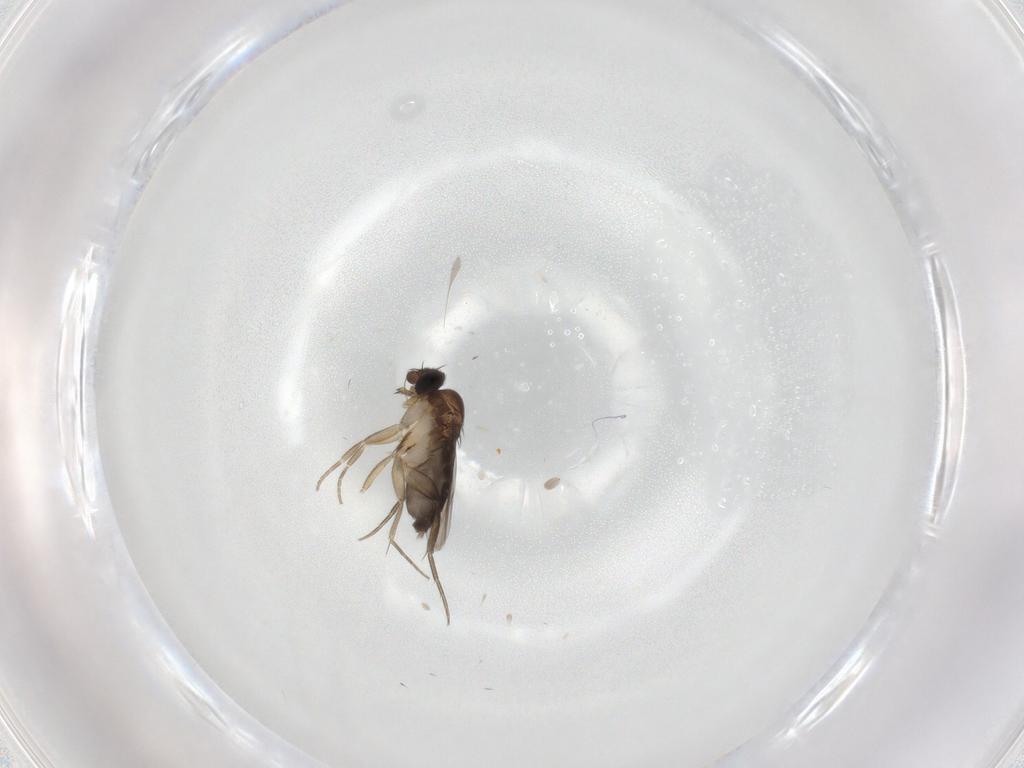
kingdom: Animalia
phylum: Arthropoda
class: Insecta
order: Diptera
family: Phoridae
